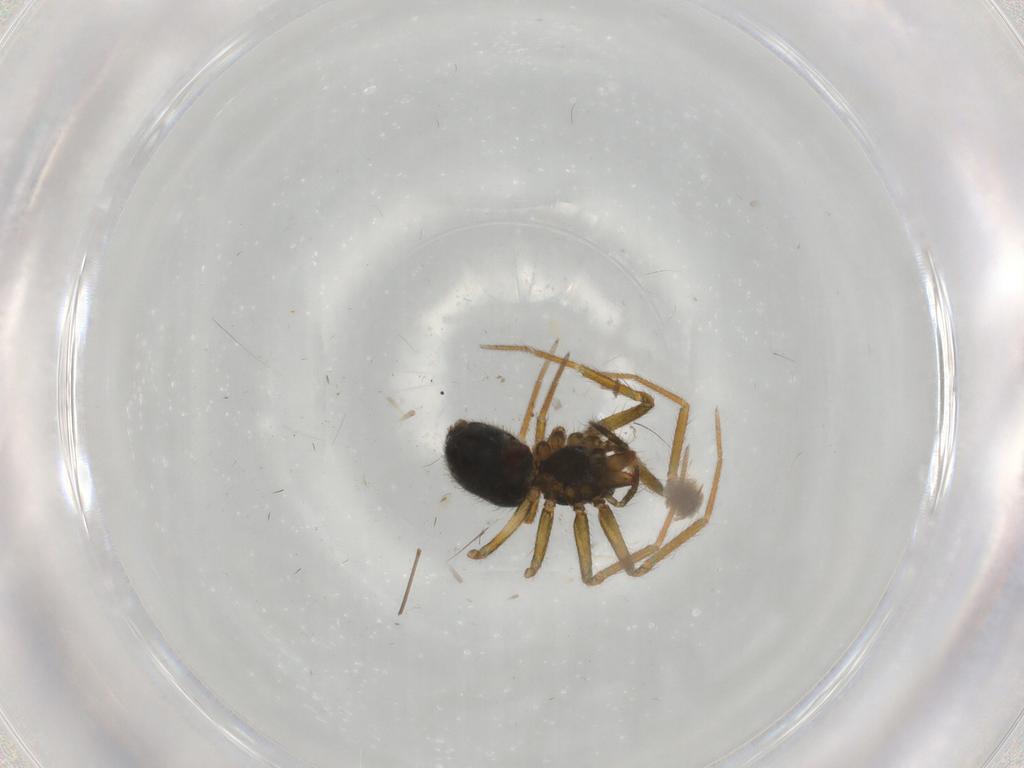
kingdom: Animalia
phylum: Arthropoda
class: Arachnida
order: Araneae
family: Linyphiidae
